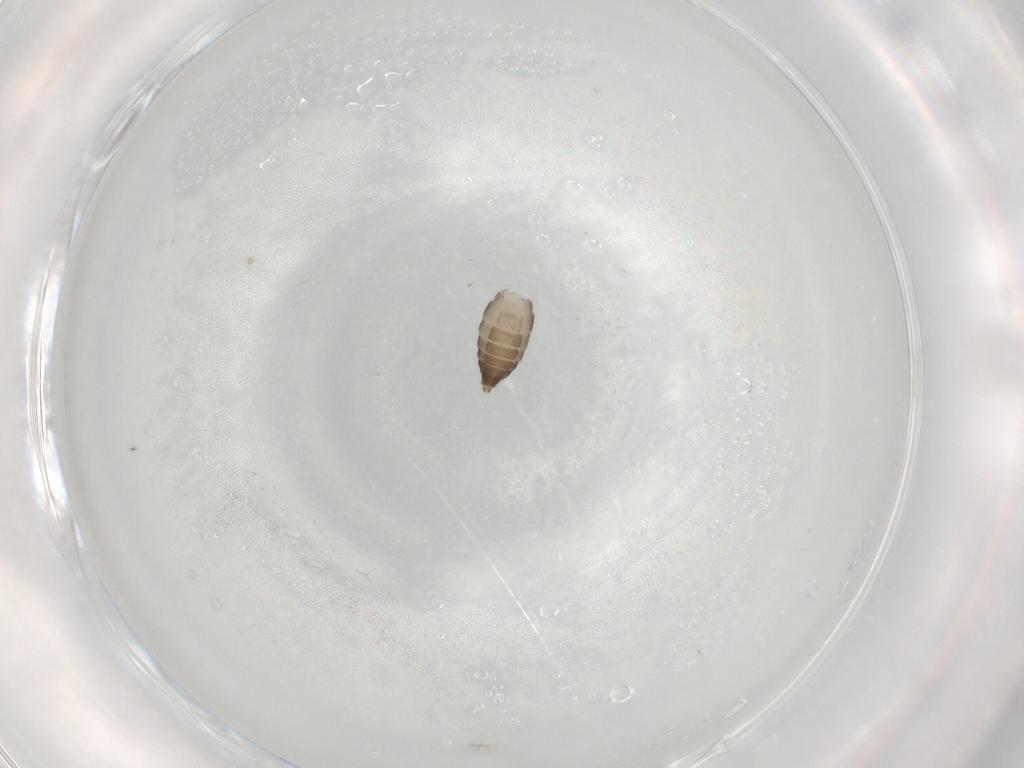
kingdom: Animalia
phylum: Arthropoda
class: Insecta
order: Diptera
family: Ceratopogonidae
